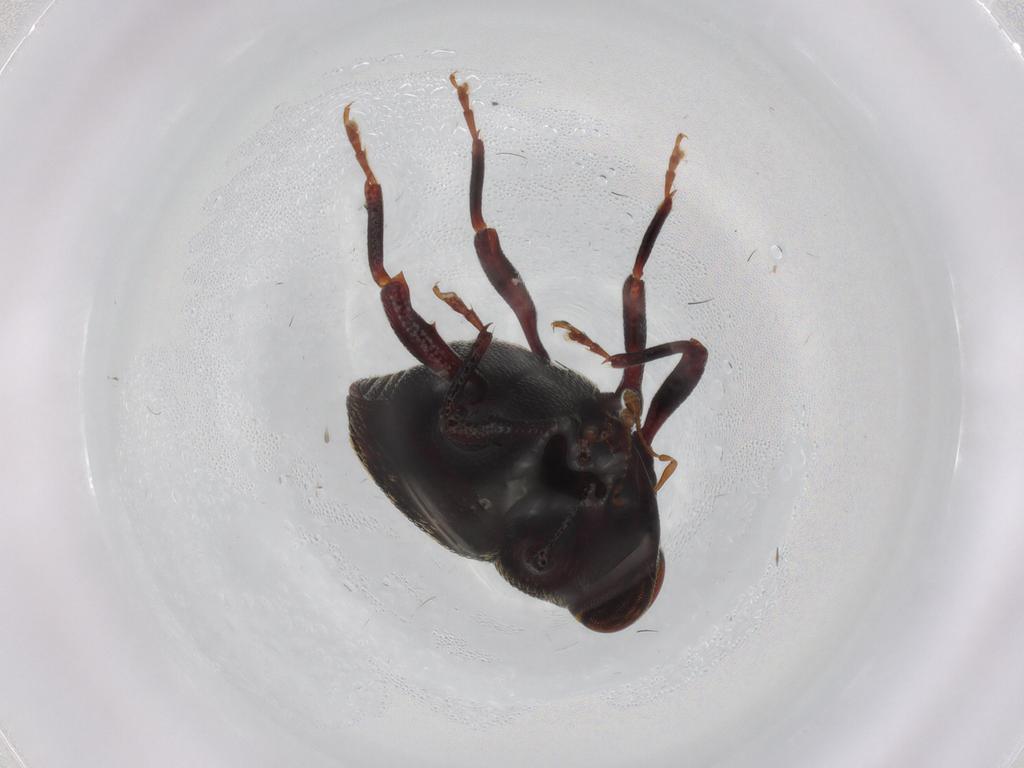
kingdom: Animalia
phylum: Arthropoda
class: Insecta
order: Coleoptera
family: Curculionidae
